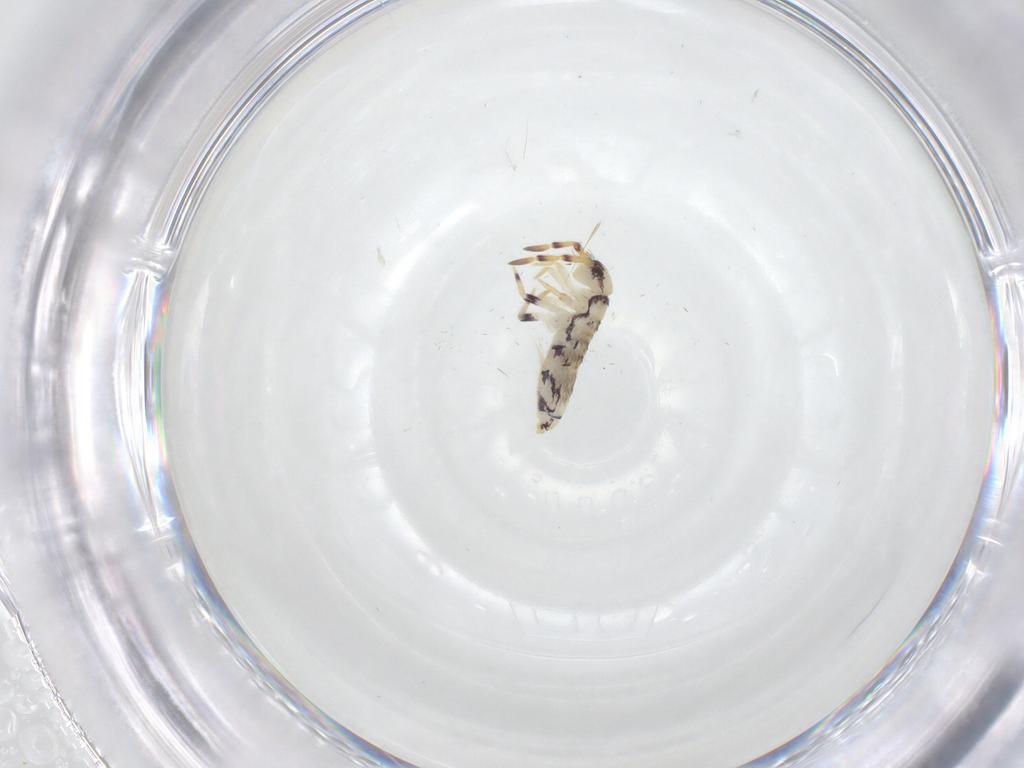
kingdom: Animalia
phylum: Arthropoda
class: Collembola
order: Entomobryomorpha
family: Isotomidae
